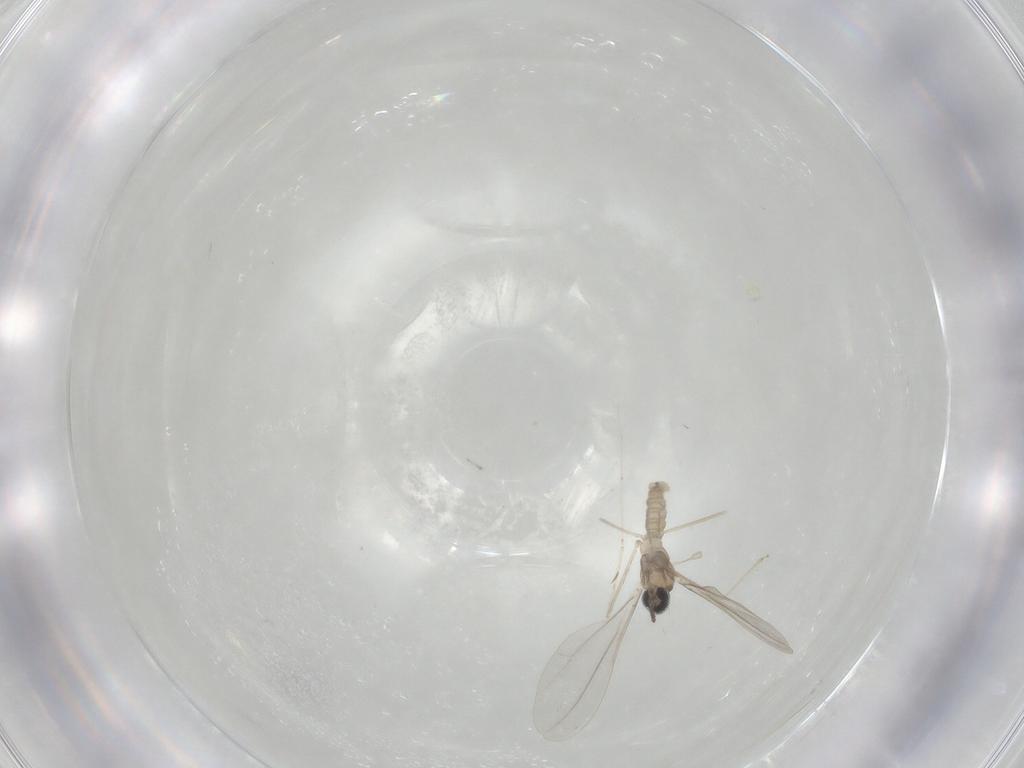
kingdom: Animalia
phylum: Arthropoda
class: Insecta
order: Diptera
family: Cecidomyiidae
